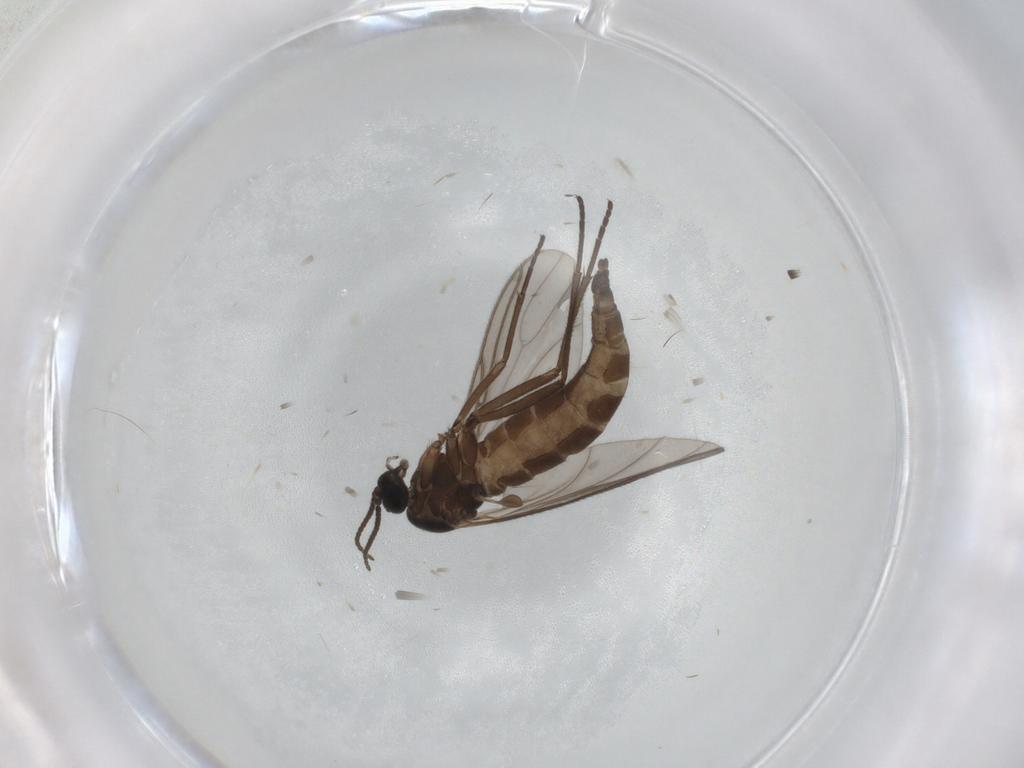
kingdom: Animalia
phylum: Arthropoda
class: Insecta
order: Diptera
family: Sciaridae
